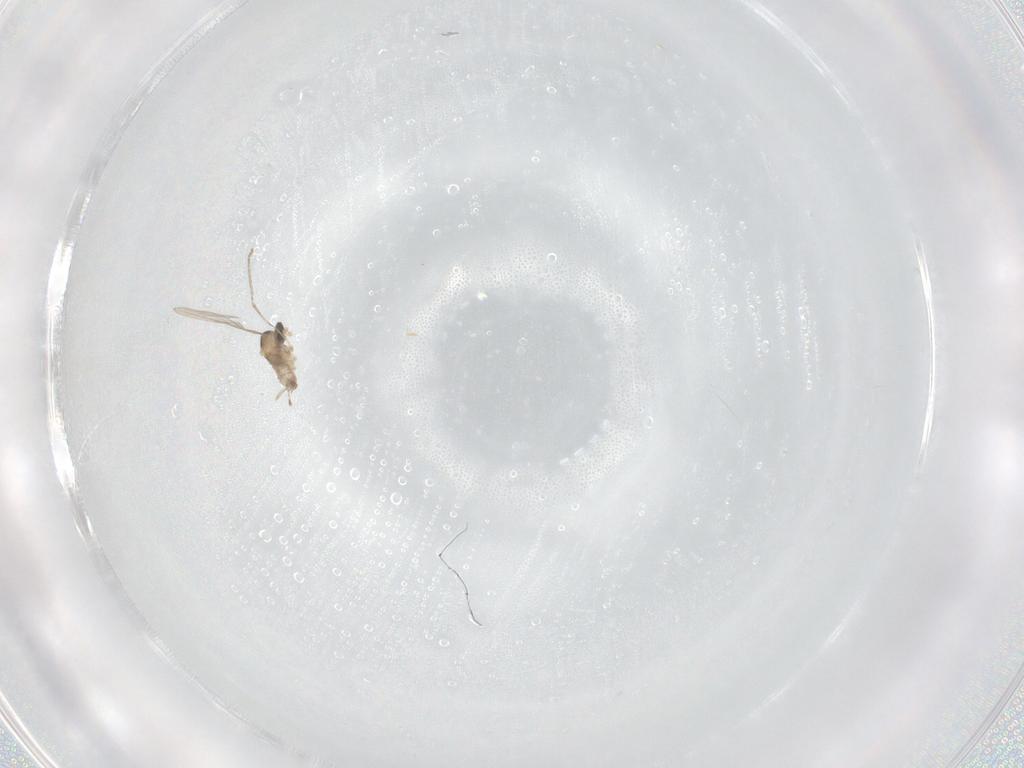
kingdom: Animalia
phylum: Arthropoda
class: Insecta
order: Diptera
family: Cecidomyiidae
